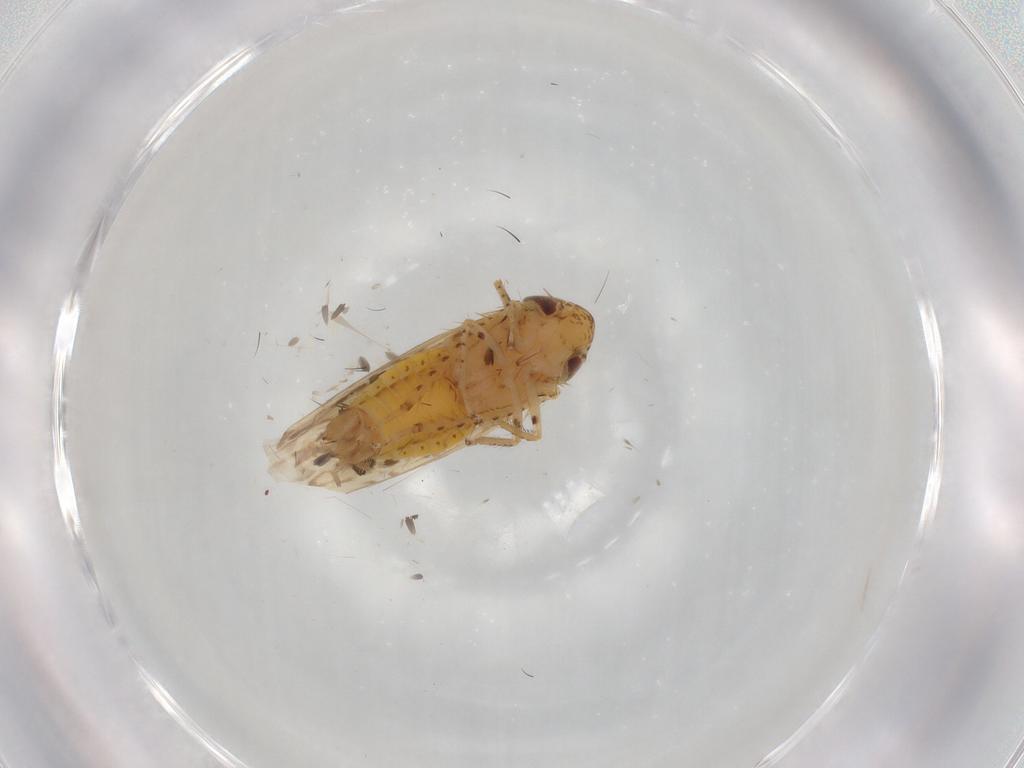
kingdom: Animalia
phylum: Arthropoda
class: Insecta
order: Hemiptera
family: Cicadellidae
